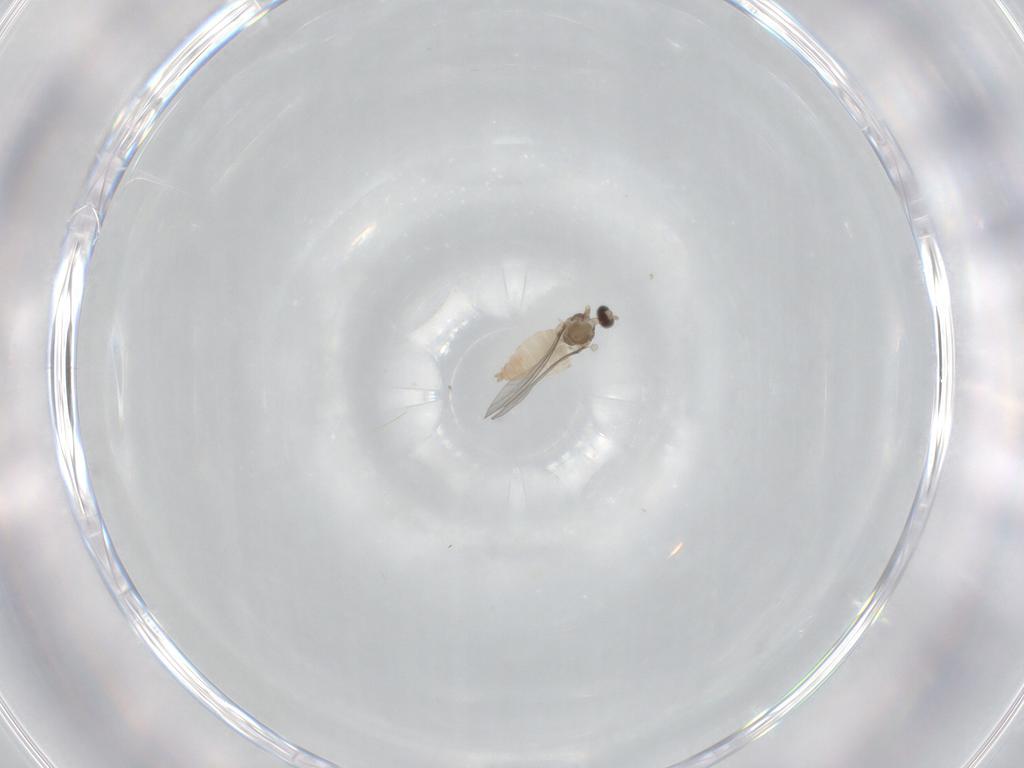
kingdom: Animalia
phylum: Arthropoda
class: Insecta
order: Diptera
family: Cecidomyiidae
